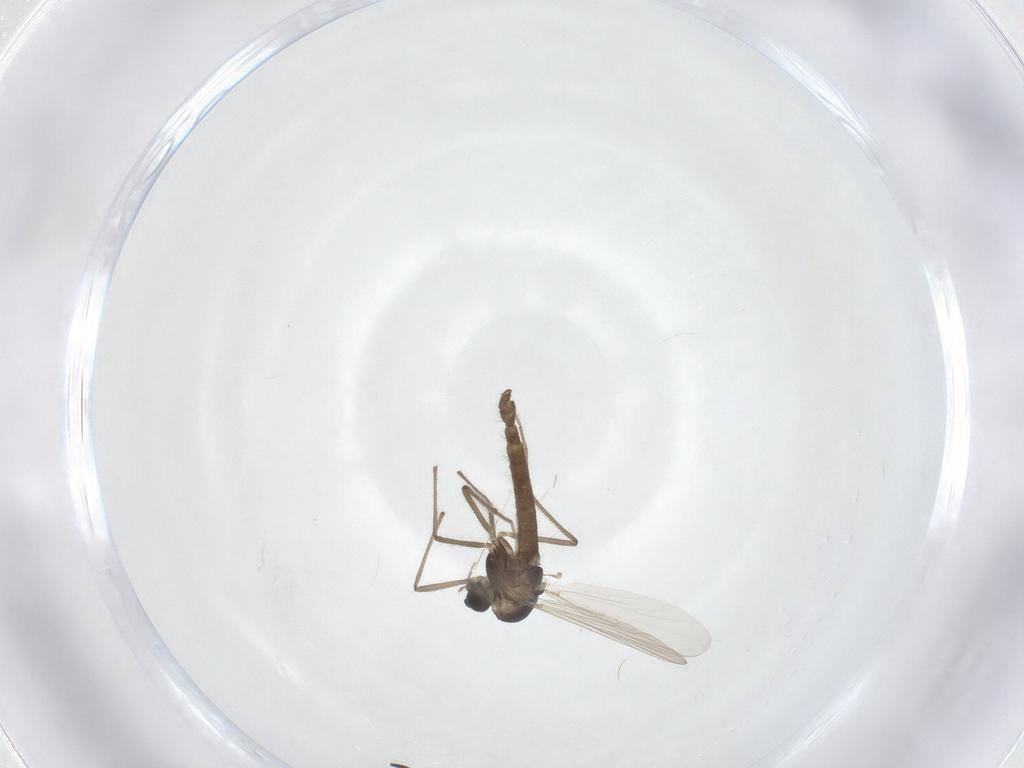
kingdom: Animalia
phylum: Arthropoda
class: Insecta
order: Diptera
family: Chironomidae
